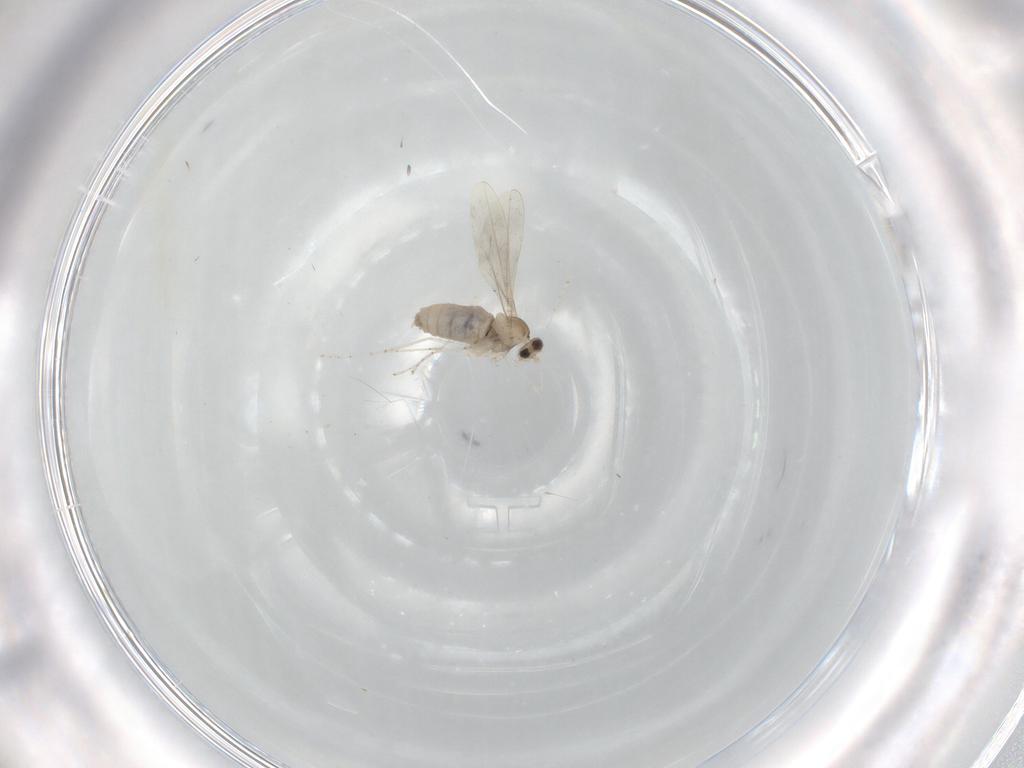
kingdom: Animalia
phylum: Arthropoda
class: Insecta
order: Diptera
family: Cecidomyiidae
